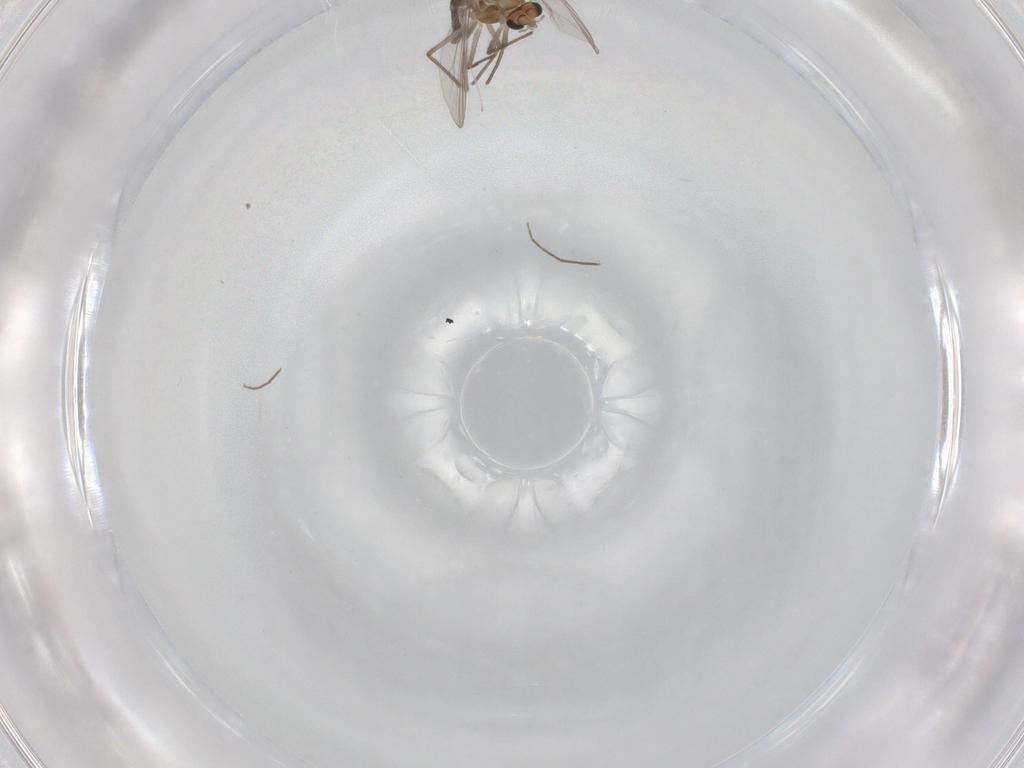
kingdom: Animalia
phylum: Arthropoda
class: Insecta
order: Diptera
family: Chironomidae
